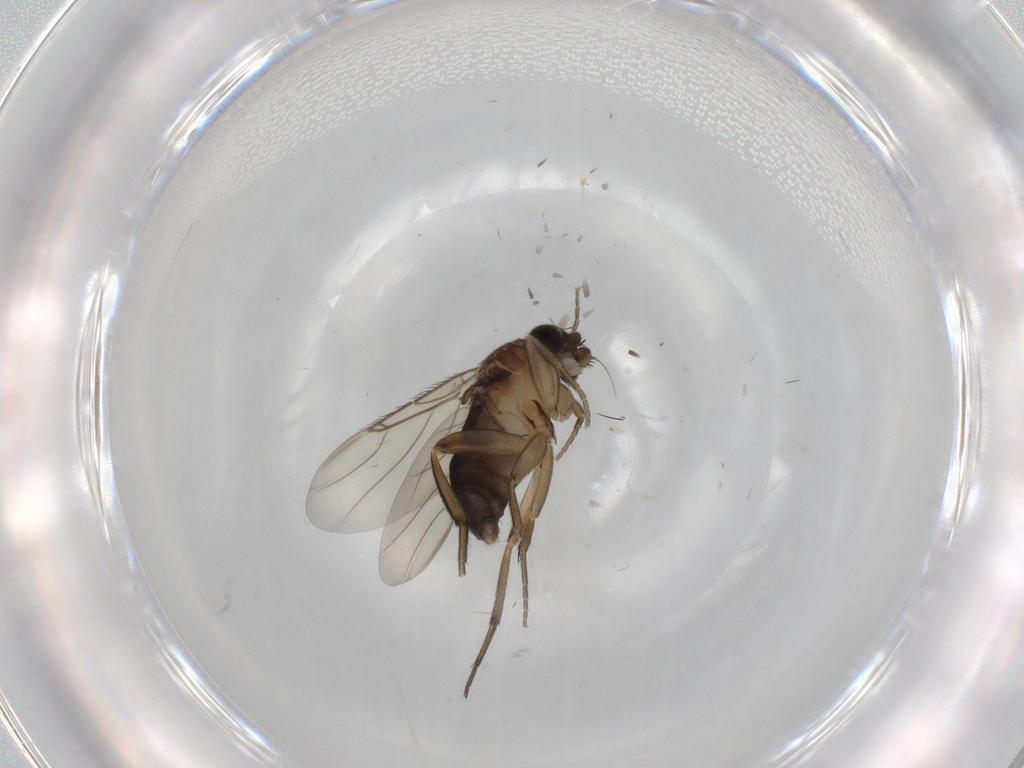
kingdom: Animalia
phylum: Arthropoda
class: Insecta
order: Diptera
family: Phoridae
